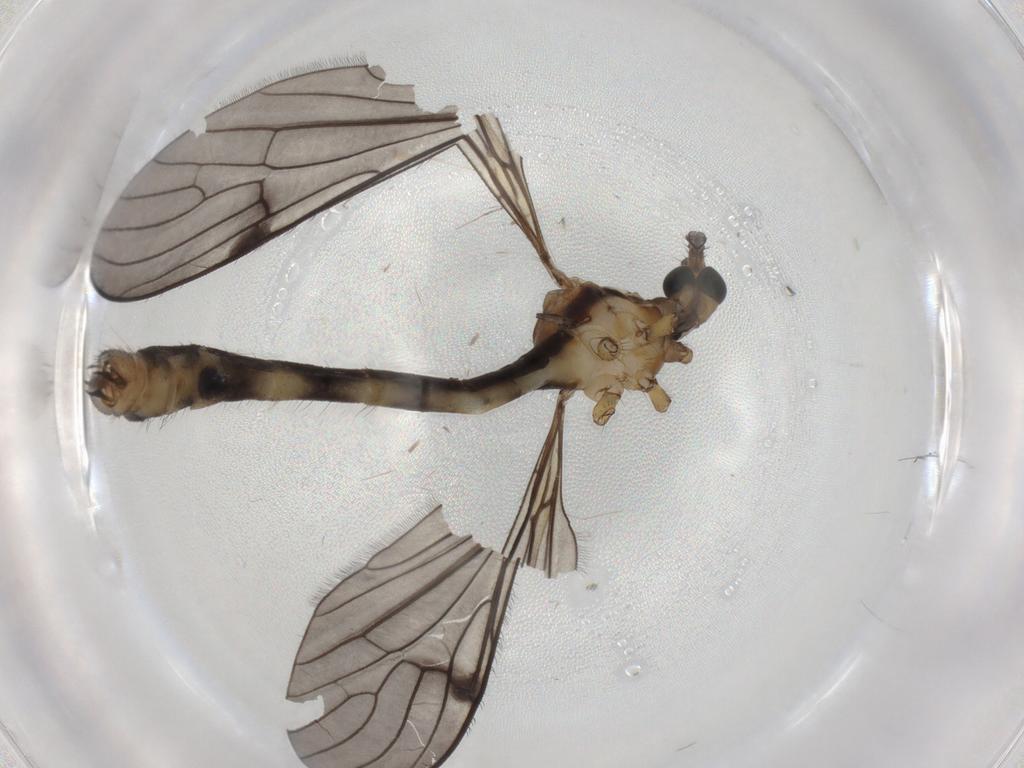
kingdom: Animalia
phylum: Arthropoda
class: Insecta
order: Diptera
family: Limoniidae
